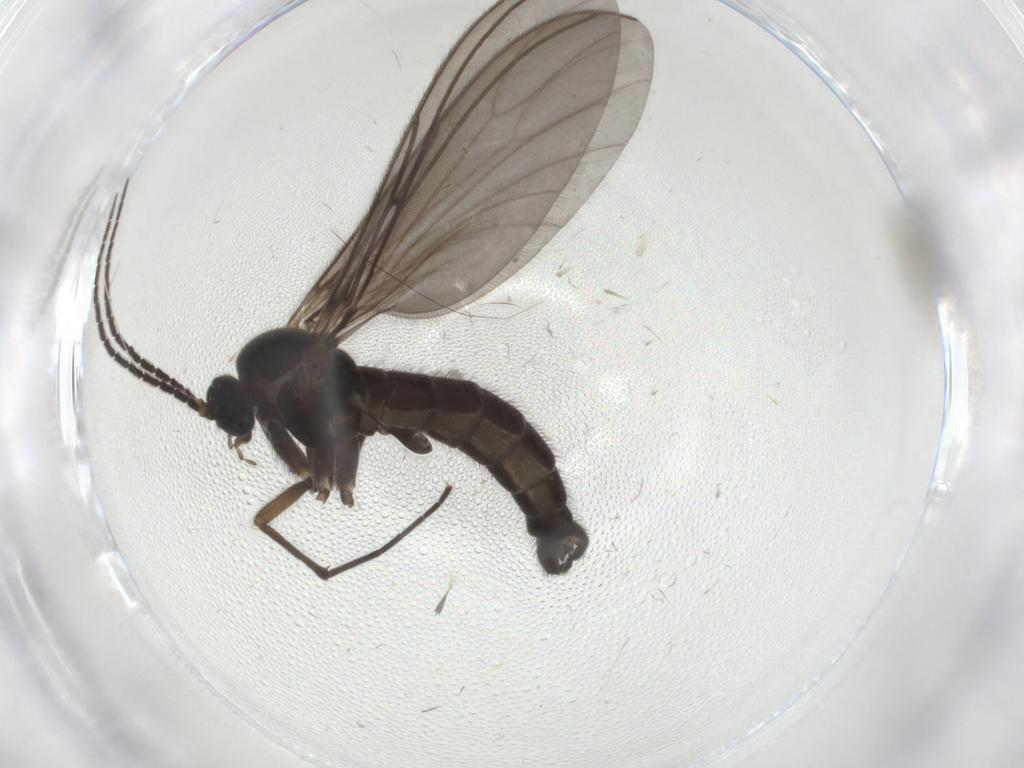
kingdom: Animalia
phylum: Arthropoda
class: Insecta
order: Diptera
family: Sciaridae
